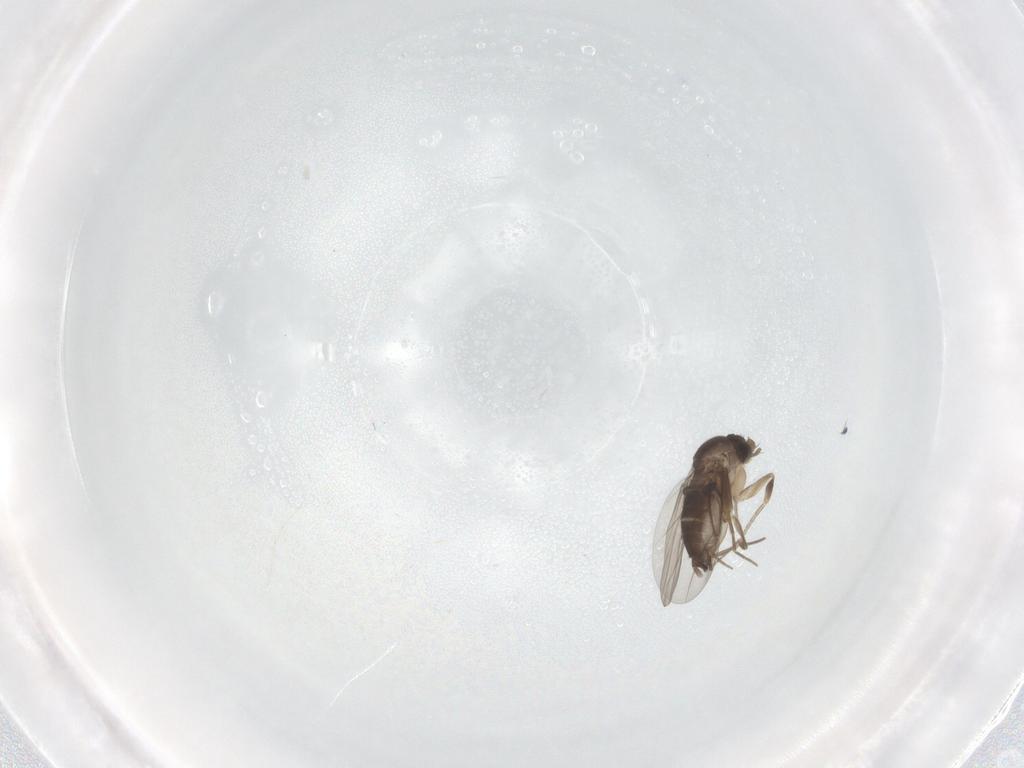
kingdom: Animalia
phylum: Arthropoda
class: Insecta
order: Diptera
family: Phoridae
